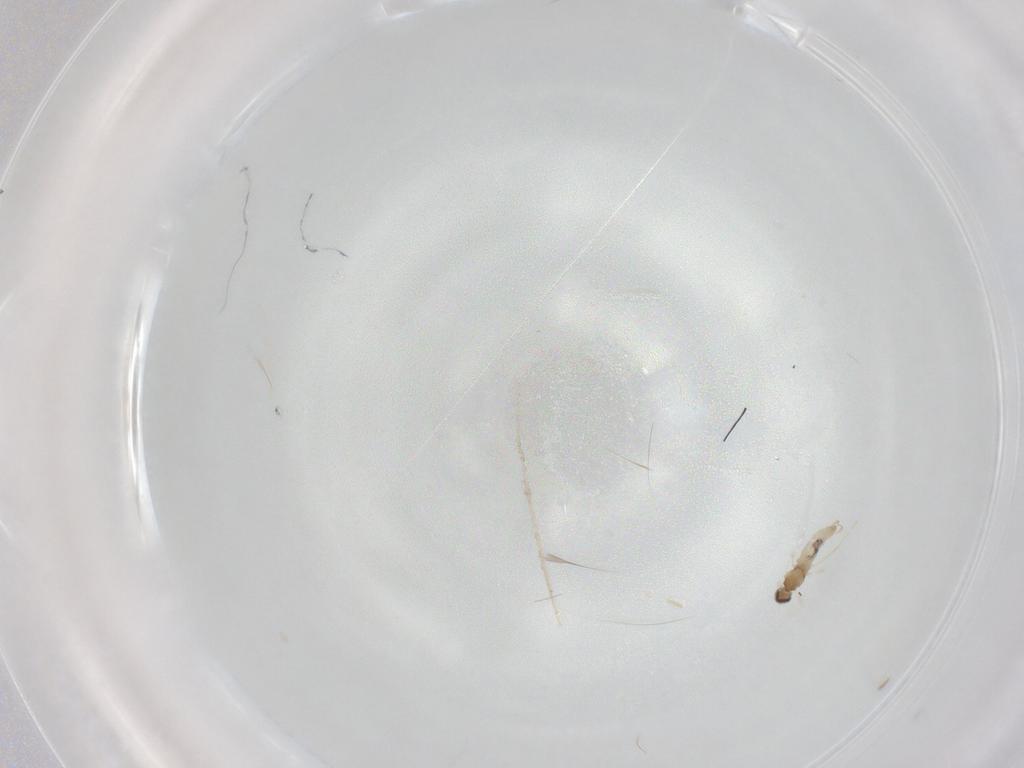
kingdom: Animalia
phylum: Arthropoda
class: Insecta
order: Diptera
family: Cecidomyiidae
